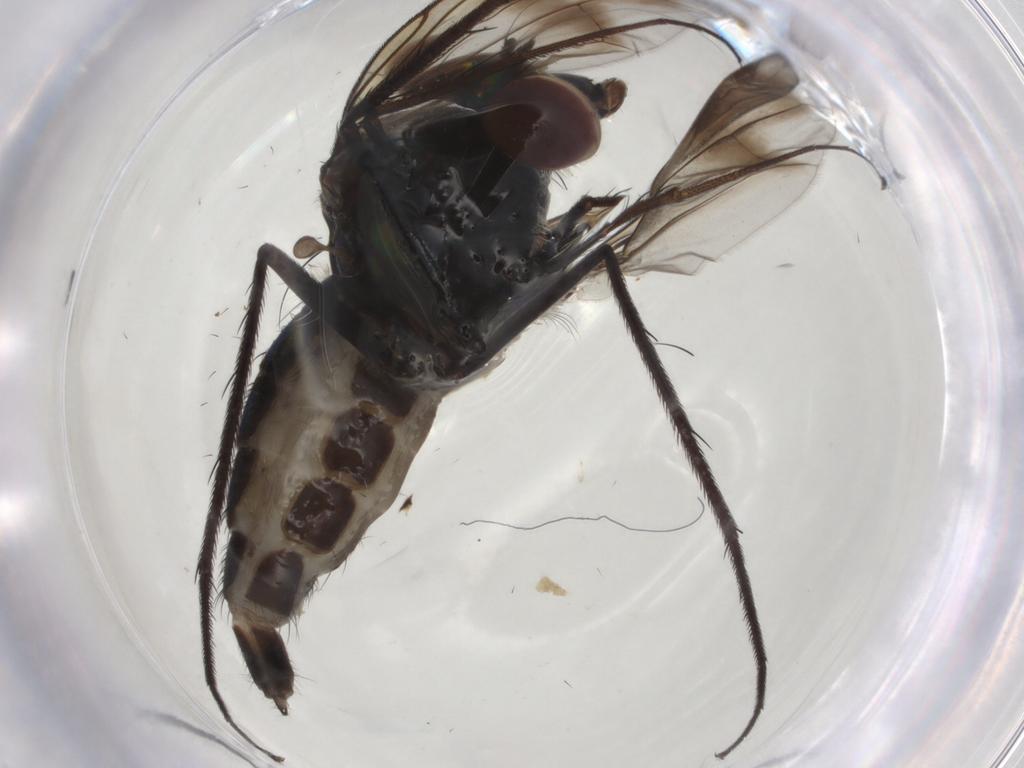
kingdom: Animalia
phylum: Arthropoda
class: Insecta
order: Diptera
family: Dolichopodidae
